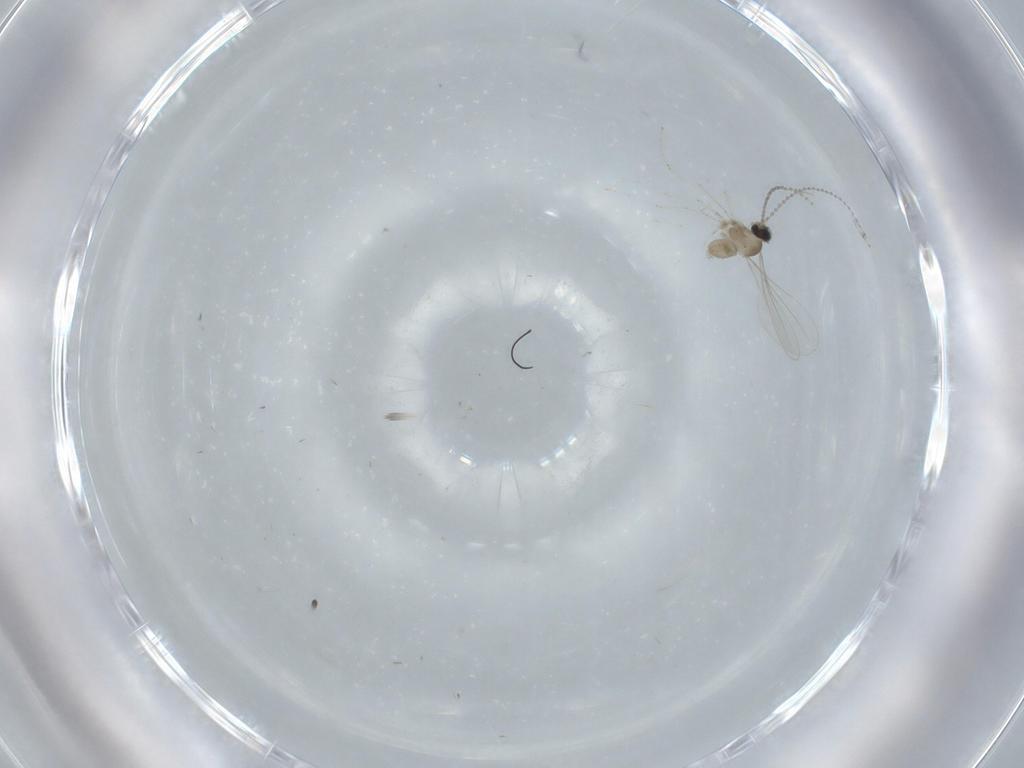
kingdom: Animalia
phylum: Arthropoda
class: Insecta
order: Diptera
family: Cecidomyiidae
